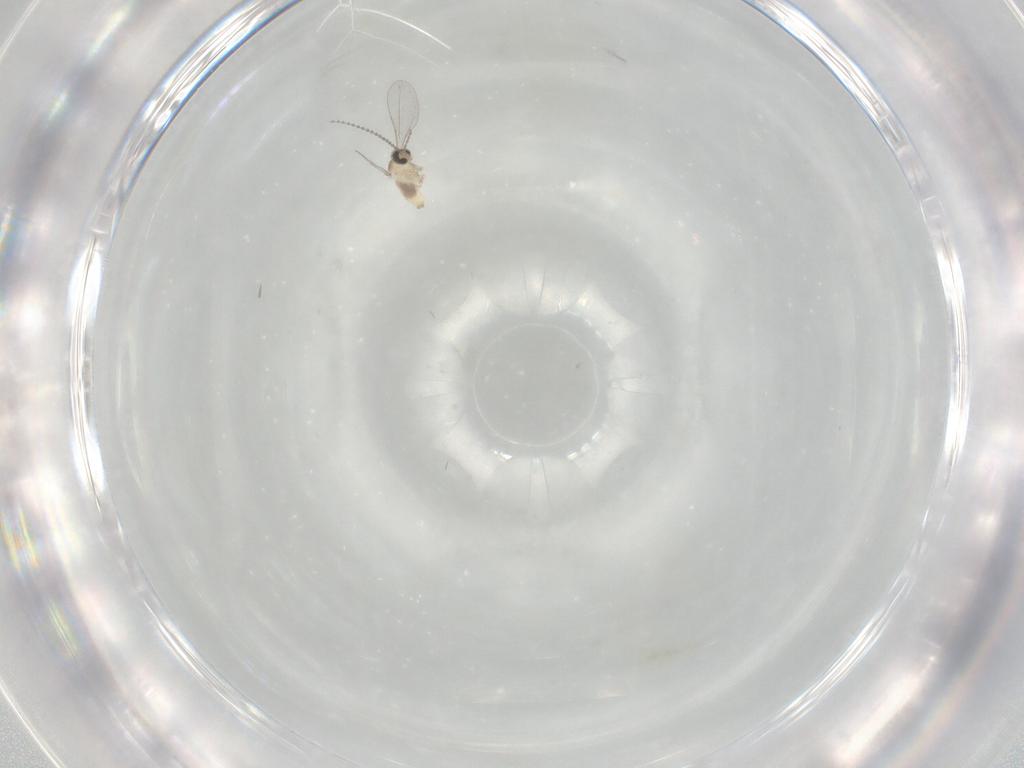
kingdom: Animalia
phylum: Arthropoda
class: Insecta
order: Diptera
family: Cecidomyiidae
